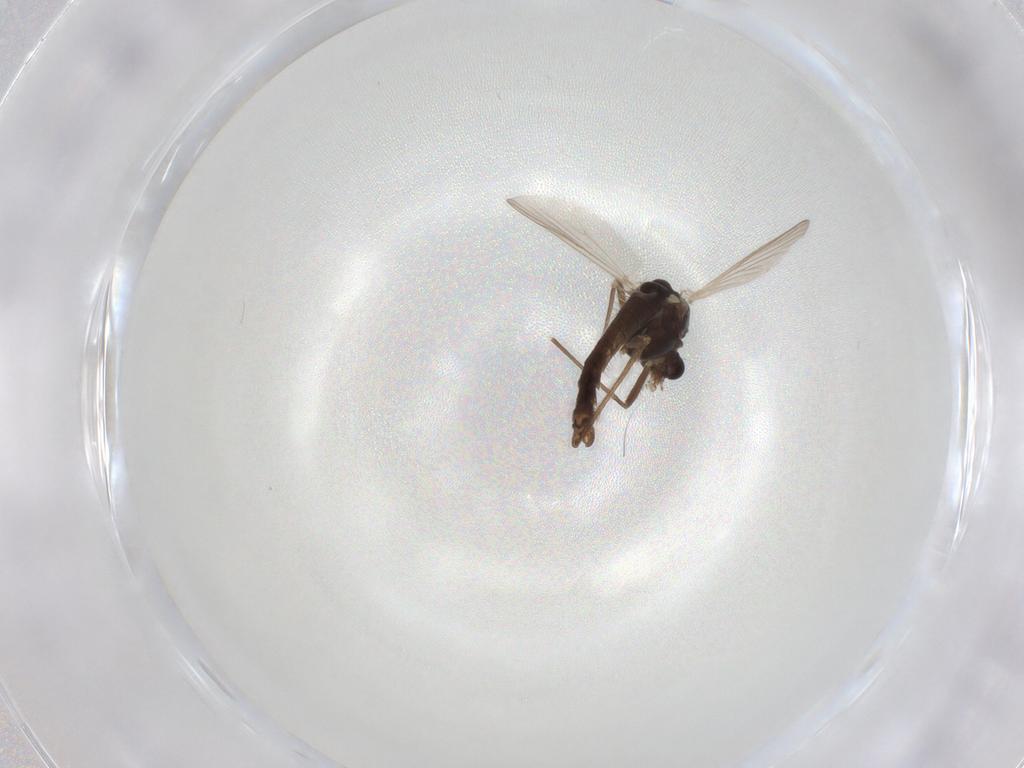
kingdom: Animalia
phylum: Arthropoda
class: Insecta
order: Diptera
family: Chironomidae
